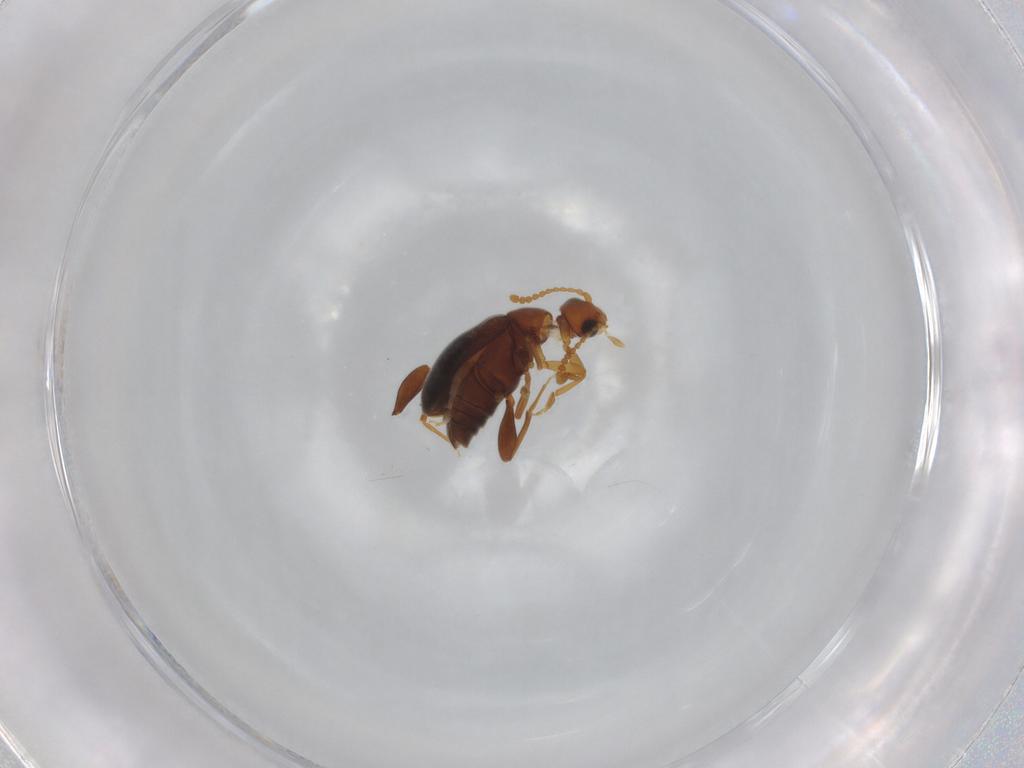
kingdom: Animalia
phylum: Arthropoda
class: Insecta
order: Coleoptera
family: Aderidae
